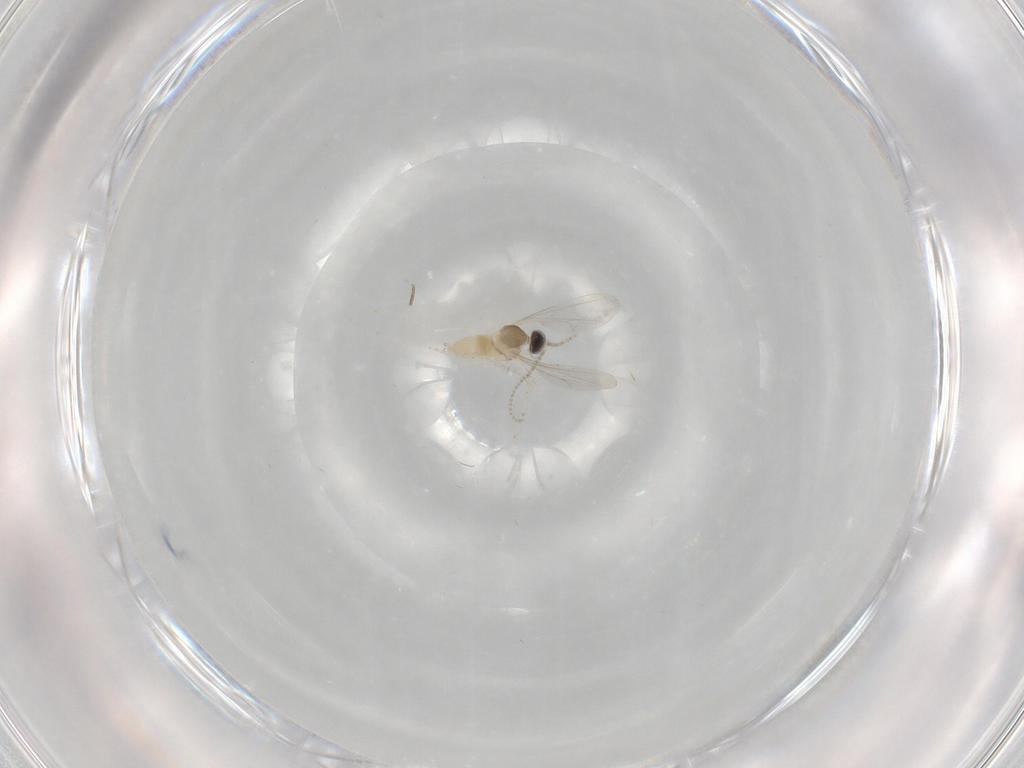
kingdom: Animalia
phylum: Arthropoda
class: Insecta
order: Diptera
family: Cecidomyiidae
